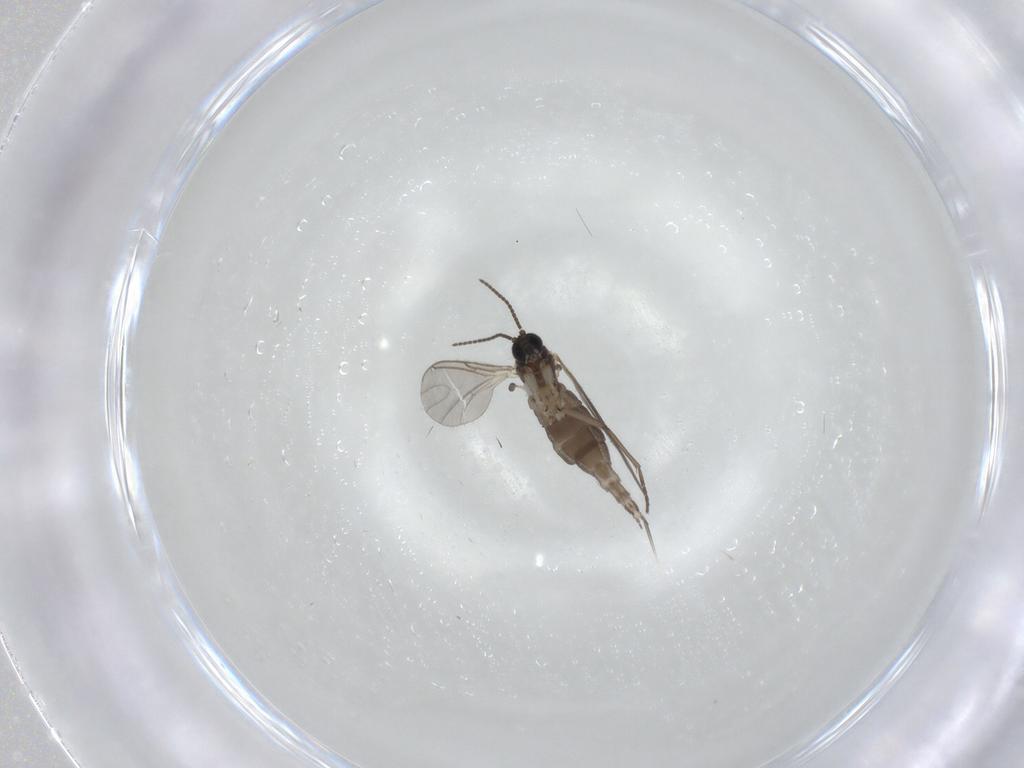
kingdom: Animalia
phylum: Arthropoda
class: Insecta
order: Diptera
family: Sciaridae
